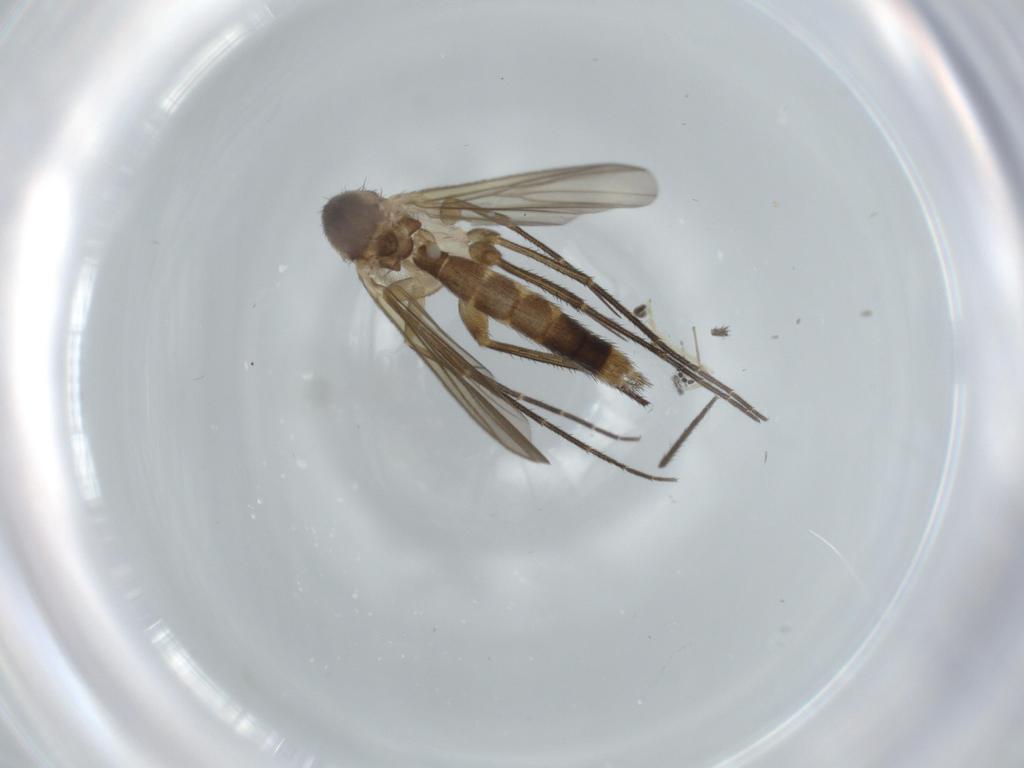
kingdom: Animalia
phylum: Arthropoda
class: Insecta
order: Diptera
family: Sciaridae
